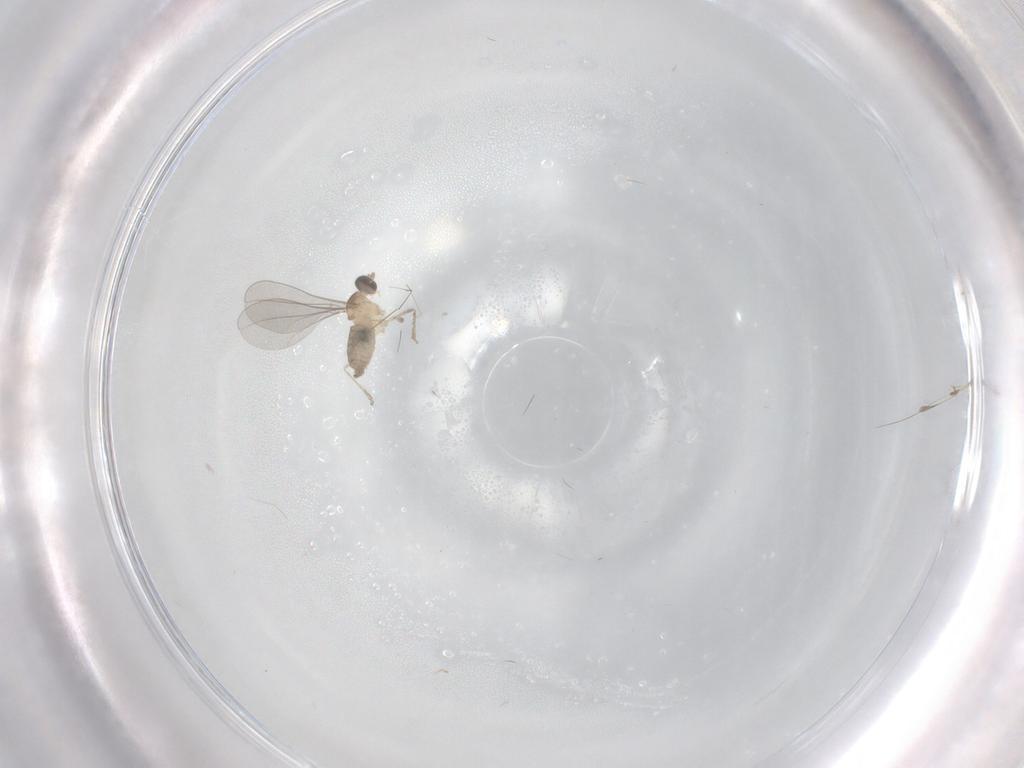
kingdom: Animalia
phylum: Arthropoda
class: Insecta
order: Diptera
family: Cecidomyiidae
